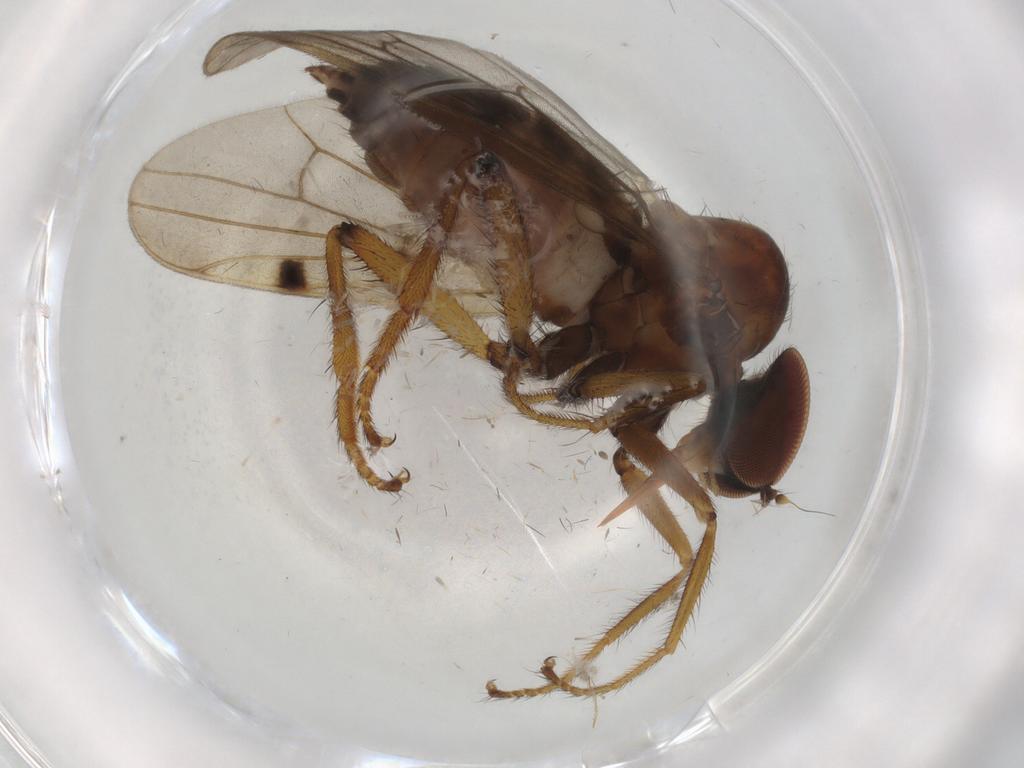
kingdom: Animalia
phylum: Arthropoda
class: Insecta
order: Diptera
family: Hybotidae
